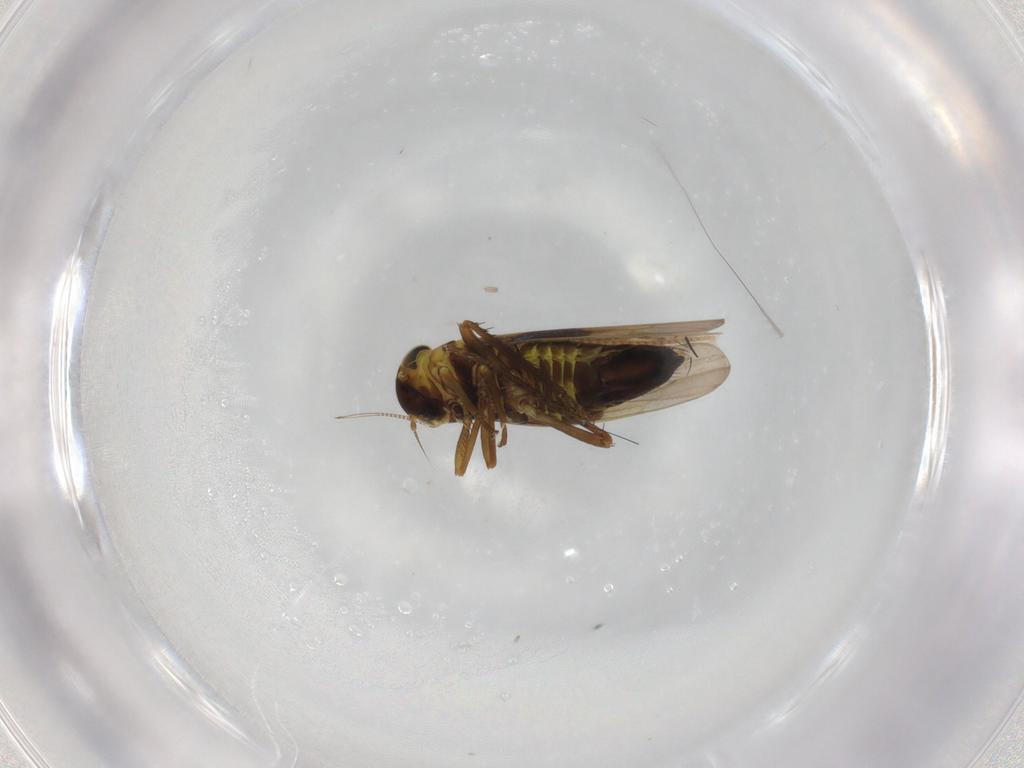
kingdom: Animalia
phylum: Arthropoda
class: Insecta
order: Hemiptera
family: Cicadellidae
